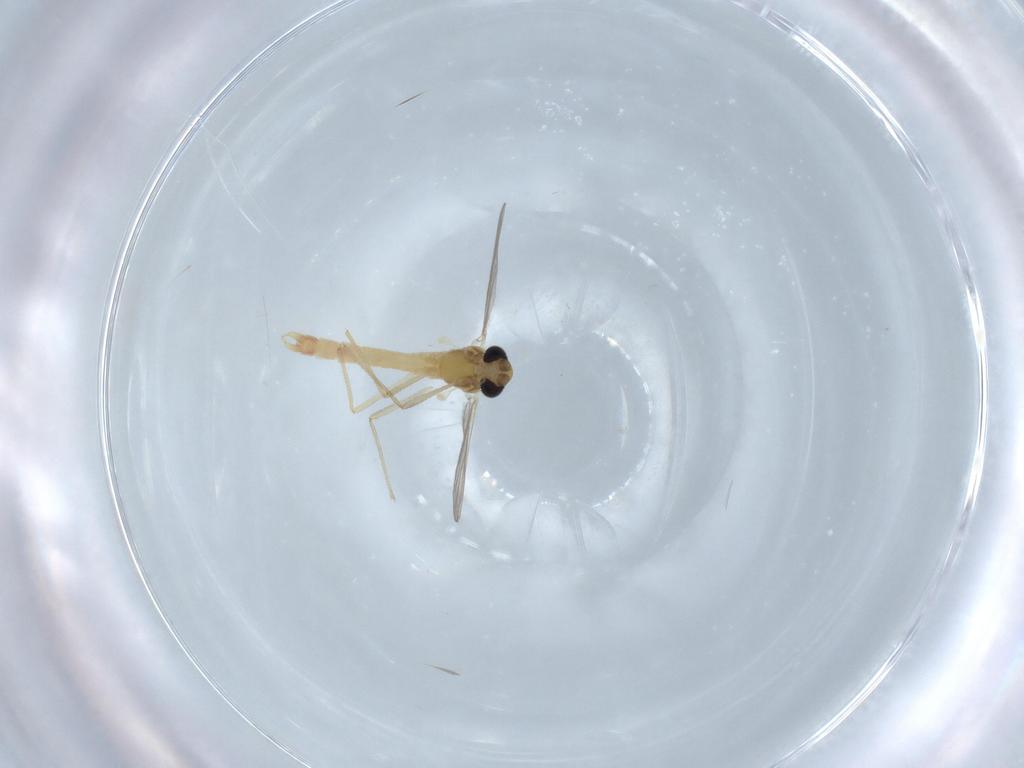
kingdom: Animalia
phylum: Arthropoda
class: Insecta
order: Diptera
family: Chironomidae
